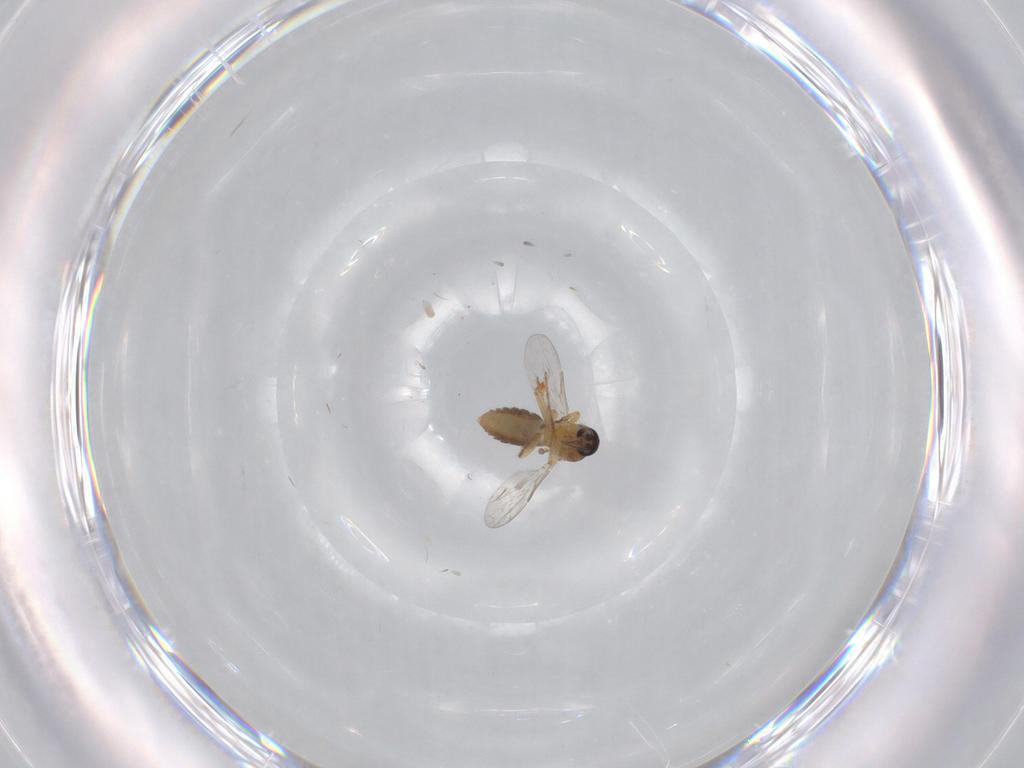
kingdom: Animalia
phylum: Arthropoda
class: Insecta
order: Diptera
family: Ceratopogonidae
